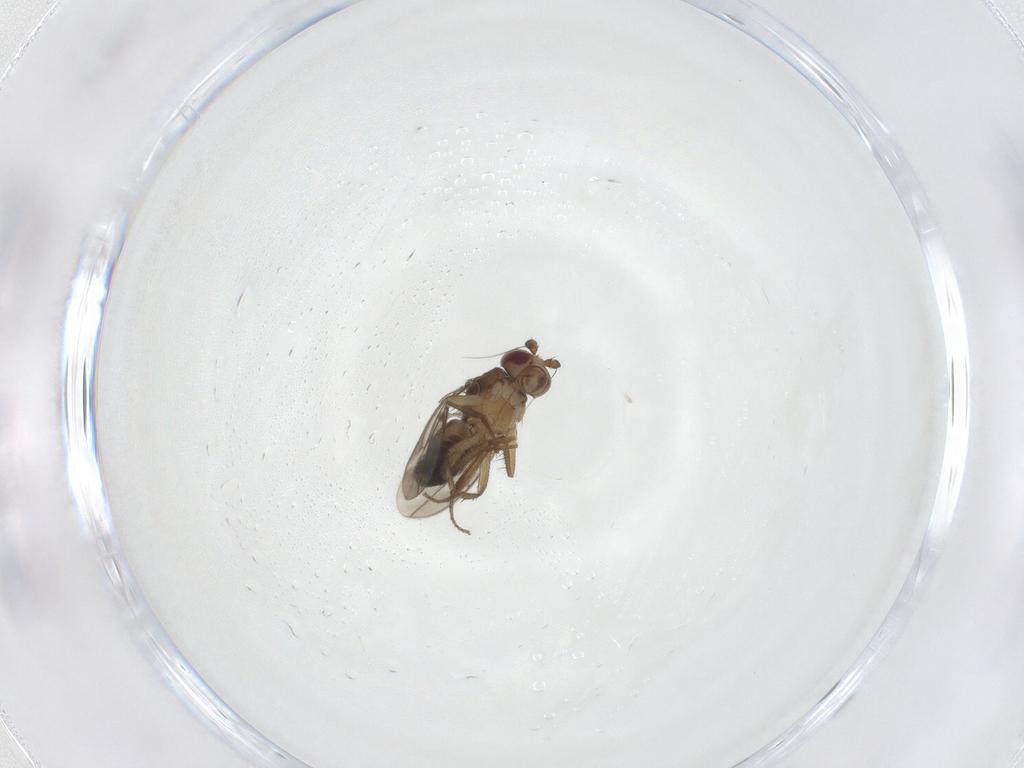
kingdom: Animalia
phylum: Arthropoda
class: Insecta
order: Diptera
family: Sphaeroceridae
